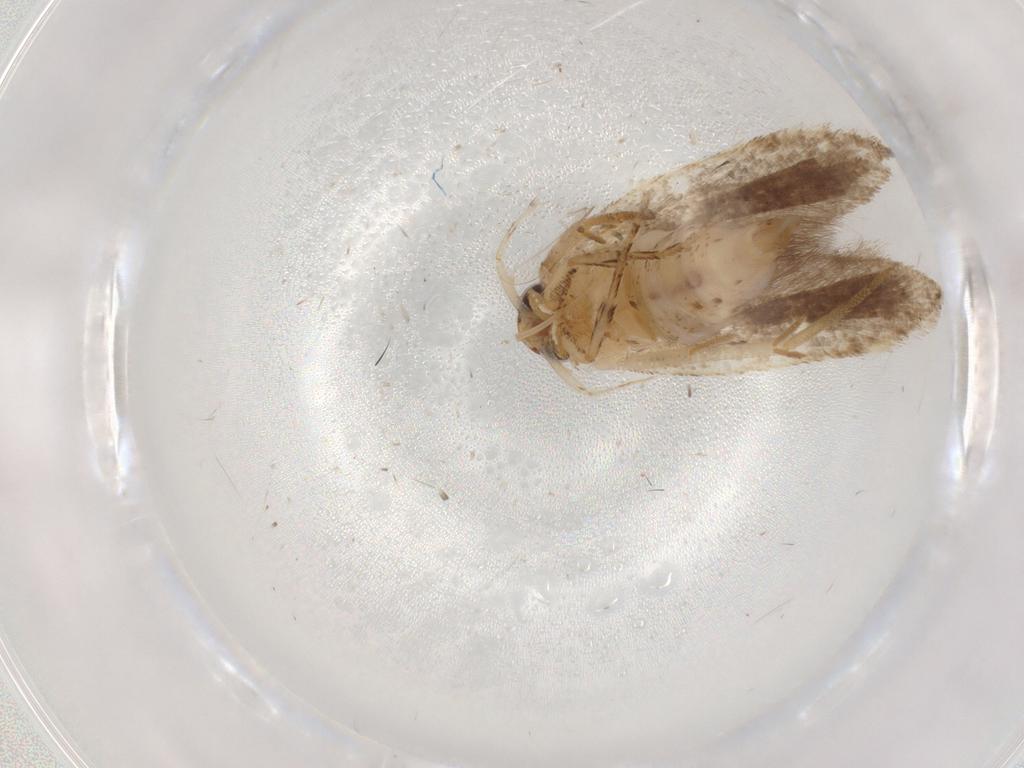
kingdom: Animalia
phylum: Arthropoda
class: Insecta
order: Lepidoptera
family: Gelechiidae
